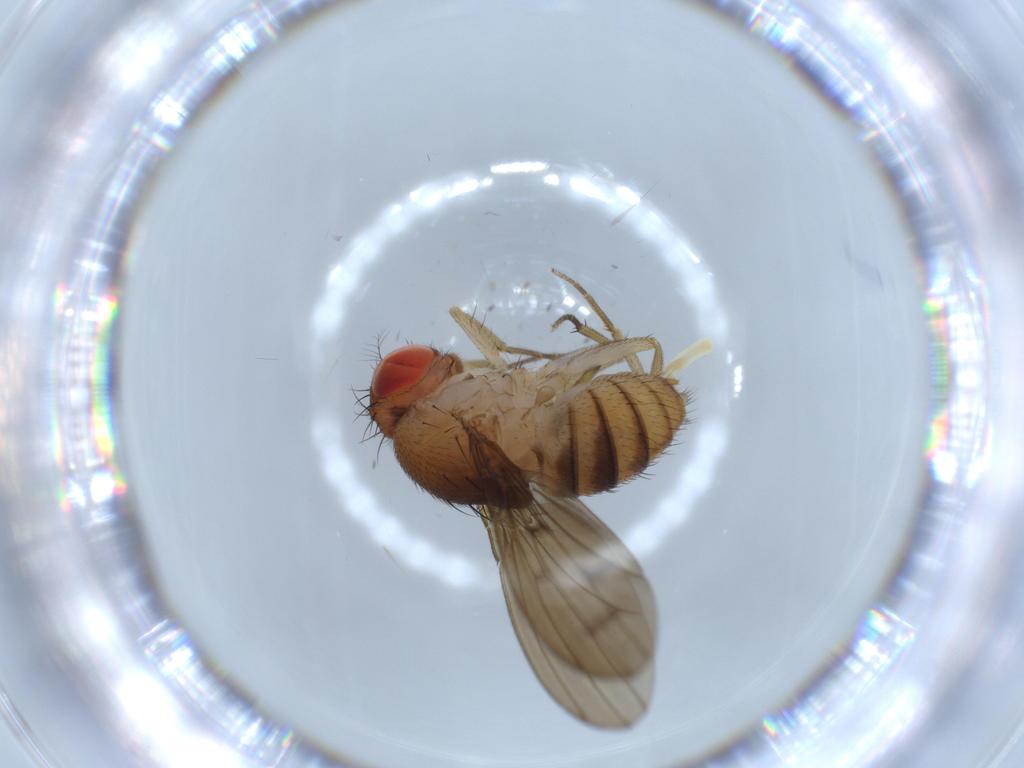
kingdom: Animalia
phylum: Arthropoda
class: Insecta
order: Diptera
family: Drosophilidae
